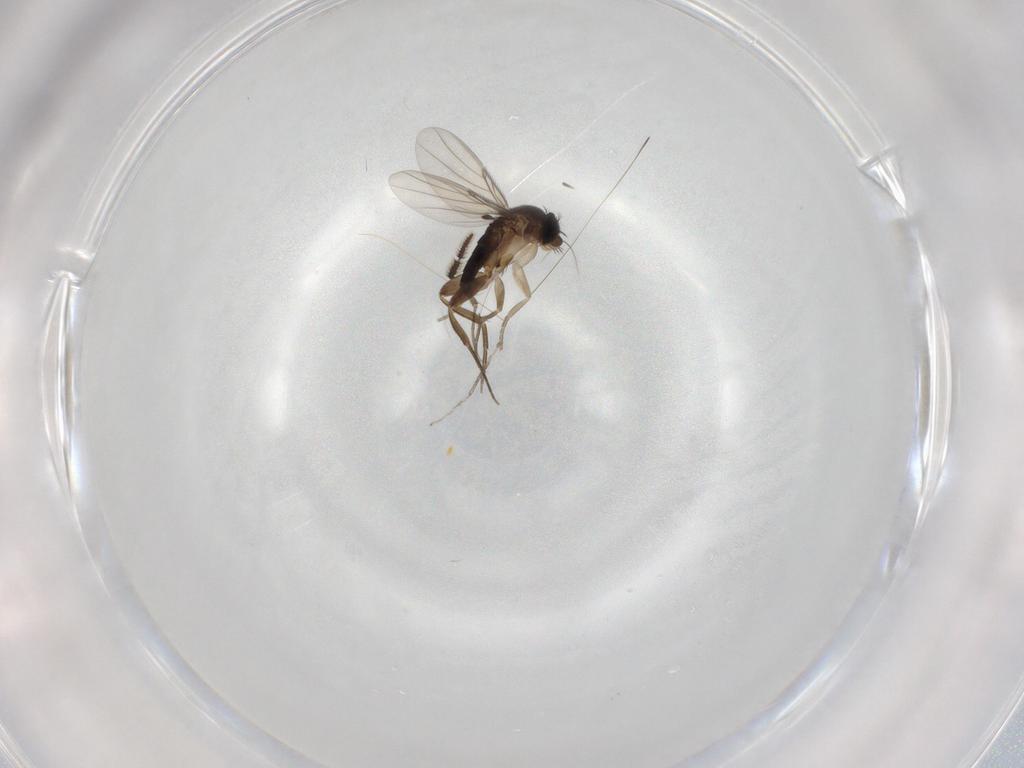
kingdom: Animalia
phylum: Arthropoda
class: Insecta
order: Diptera
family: Phoridae
